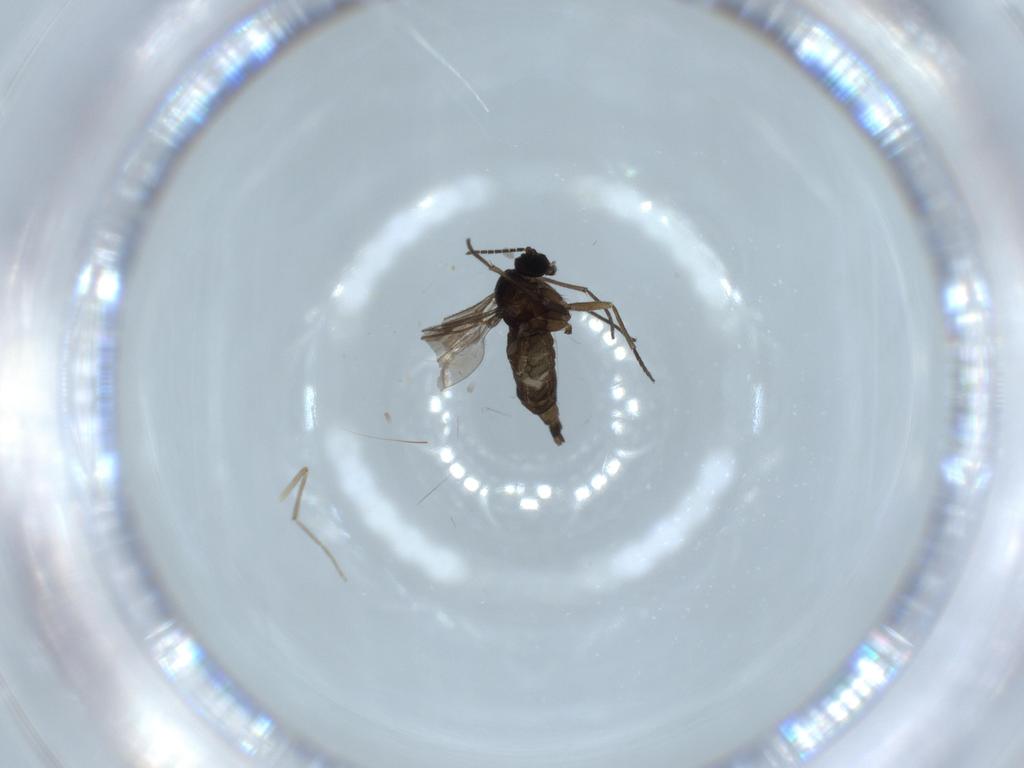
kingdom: Animalia
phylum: Arthropoda
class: Insecta
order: Diptera
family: Sciaridae
